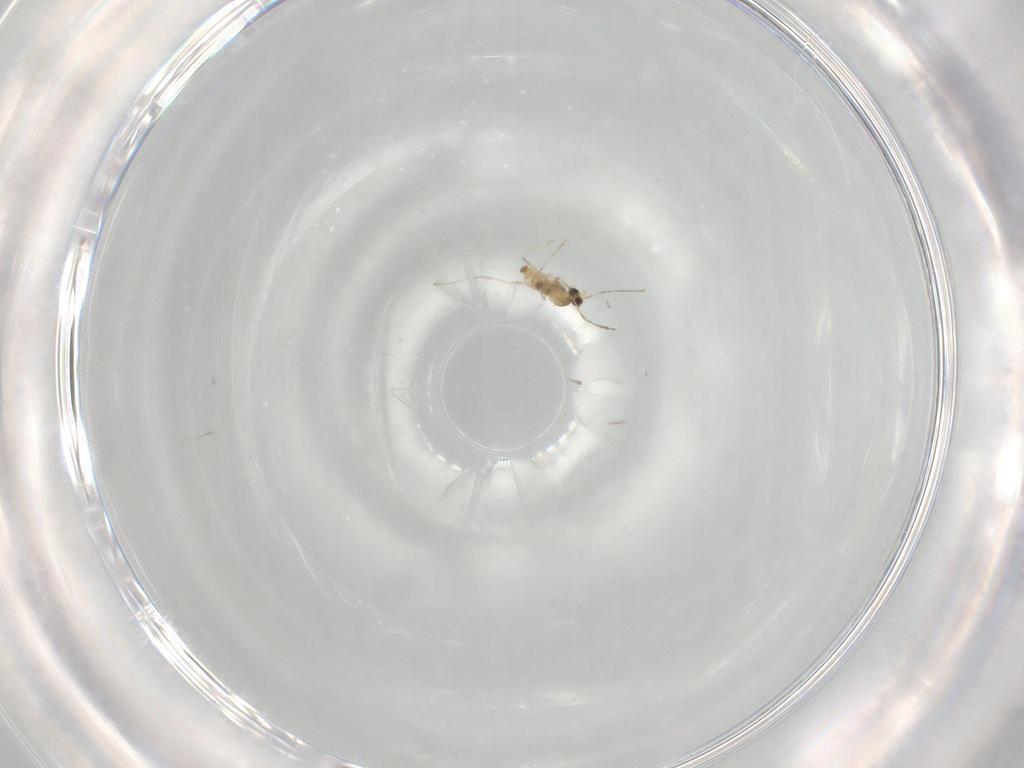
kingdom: Animalia
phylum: Arthropoda
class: Insecta
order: Diptera
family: Cecidomyiidae
